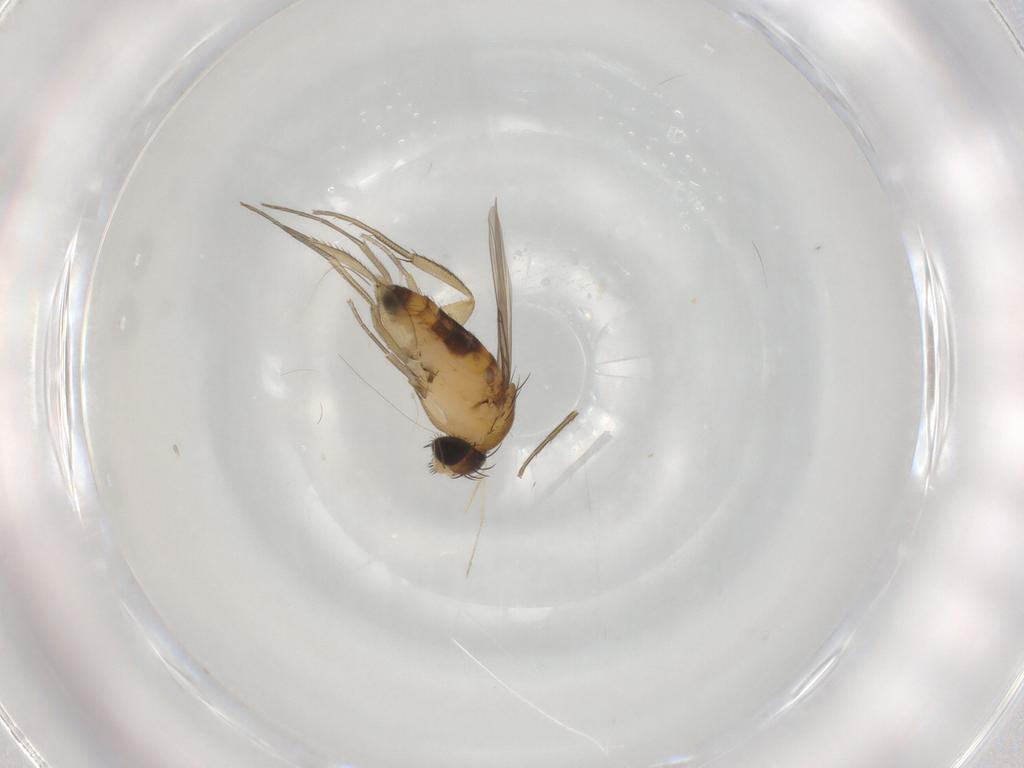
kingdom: Animalia
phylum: Arthropoda
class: Insecta
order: Diptera
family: Phoridae
